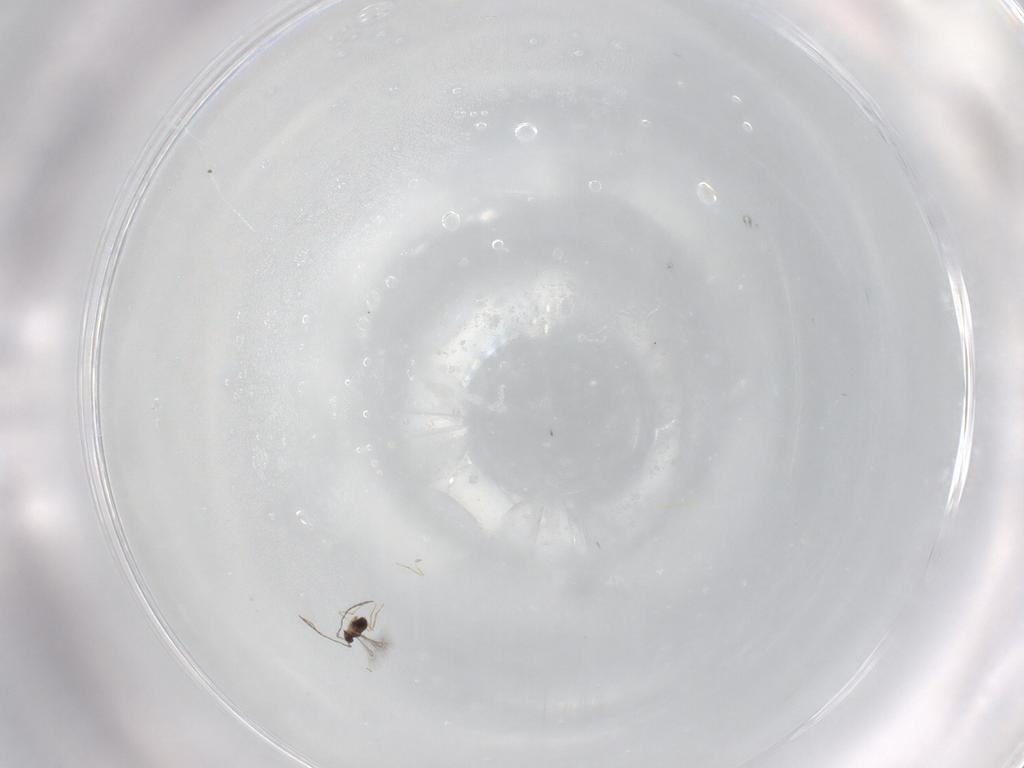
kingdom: Animalia
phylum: Arthropoda
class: Insecta
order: Hymenoptera
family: Mymaridae
